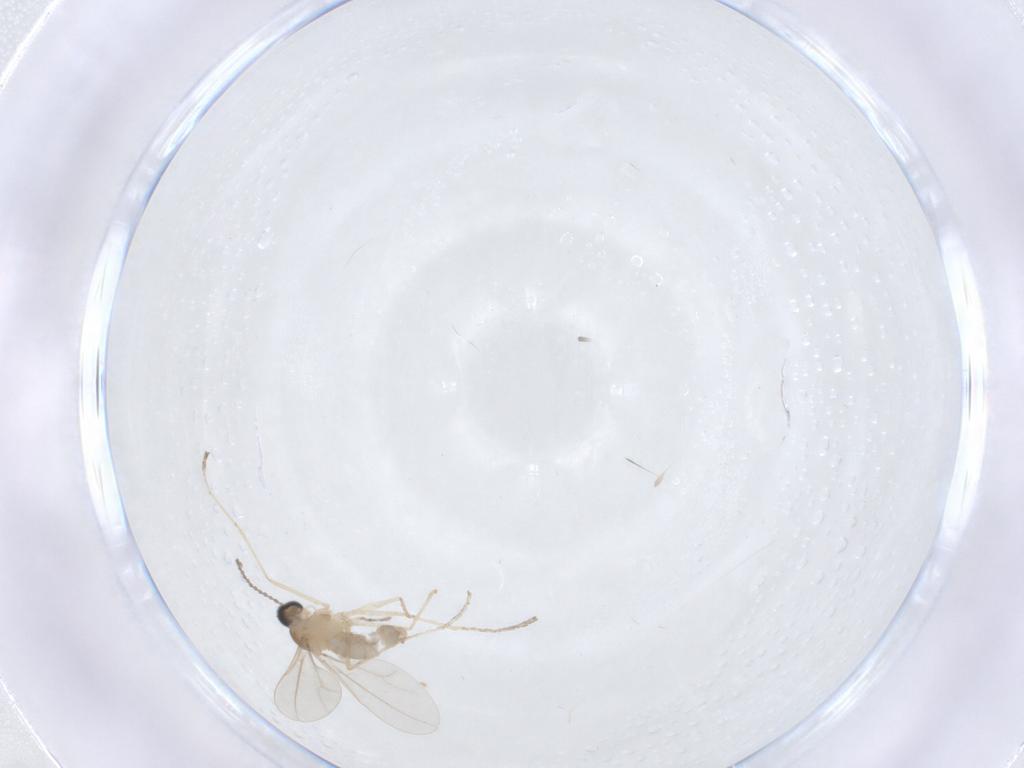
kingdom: Animalia
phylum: Arthropoda
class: Insecta
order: Diptera
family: Cecidomyiidae
